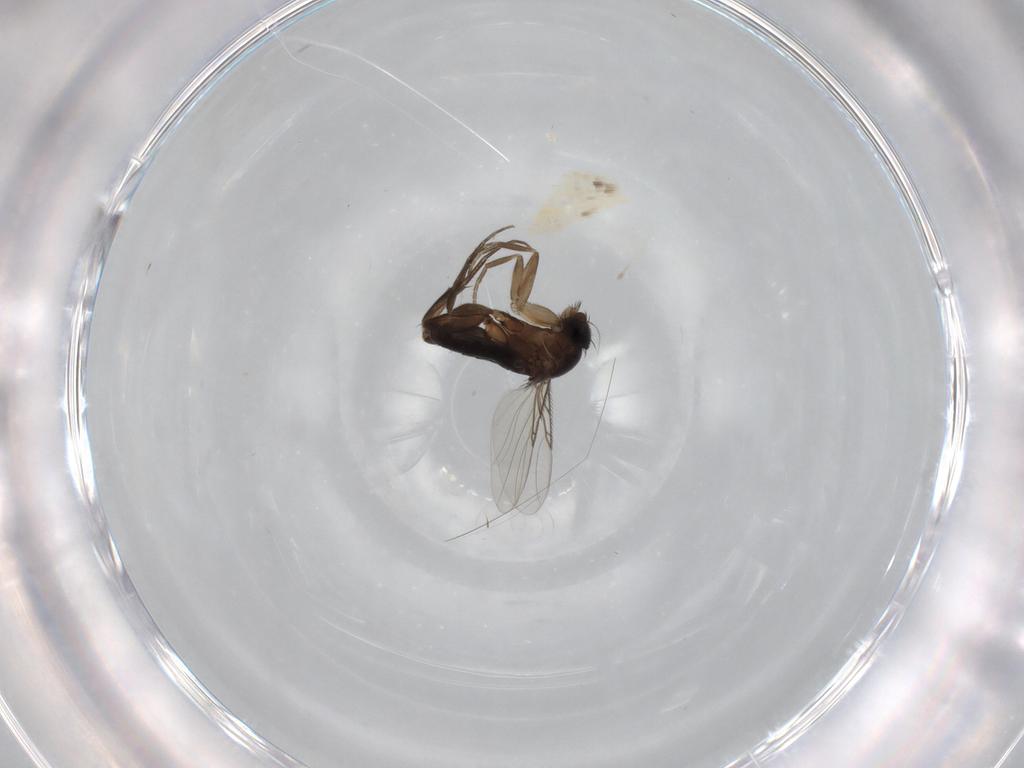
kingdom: Animalia
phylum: Arthropoda
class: Insecta
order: Diptera
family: Phoridae
